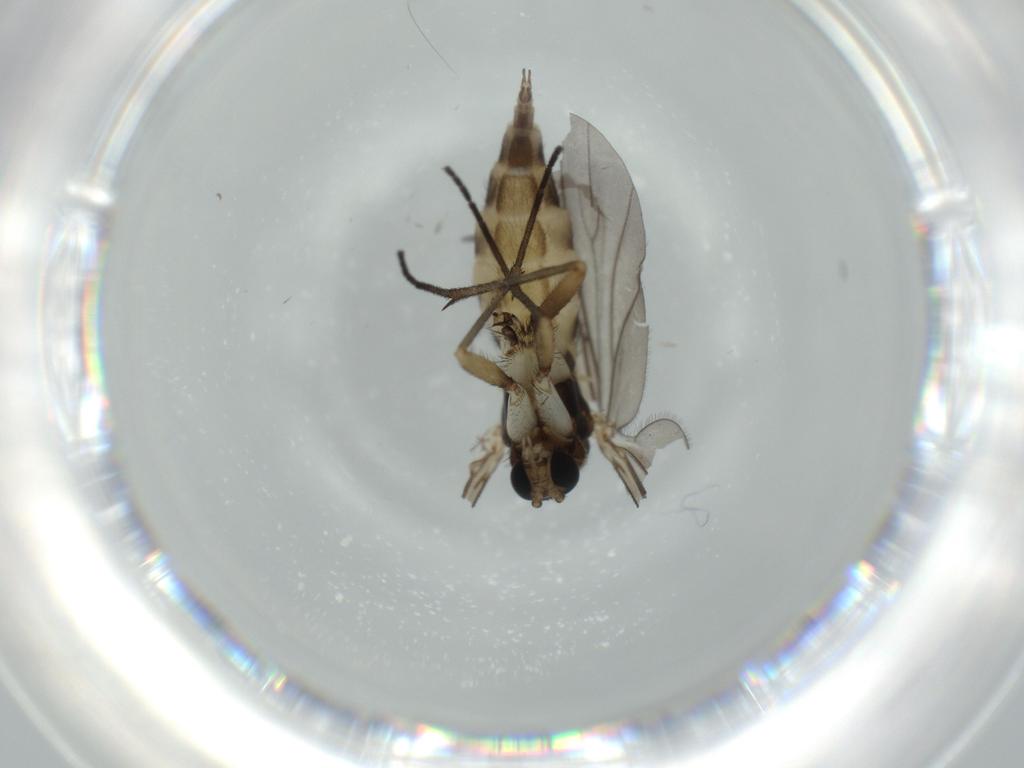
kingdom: Animalia
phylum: Arthropoda
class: Insecta
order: Diptera
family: Sciaridae
